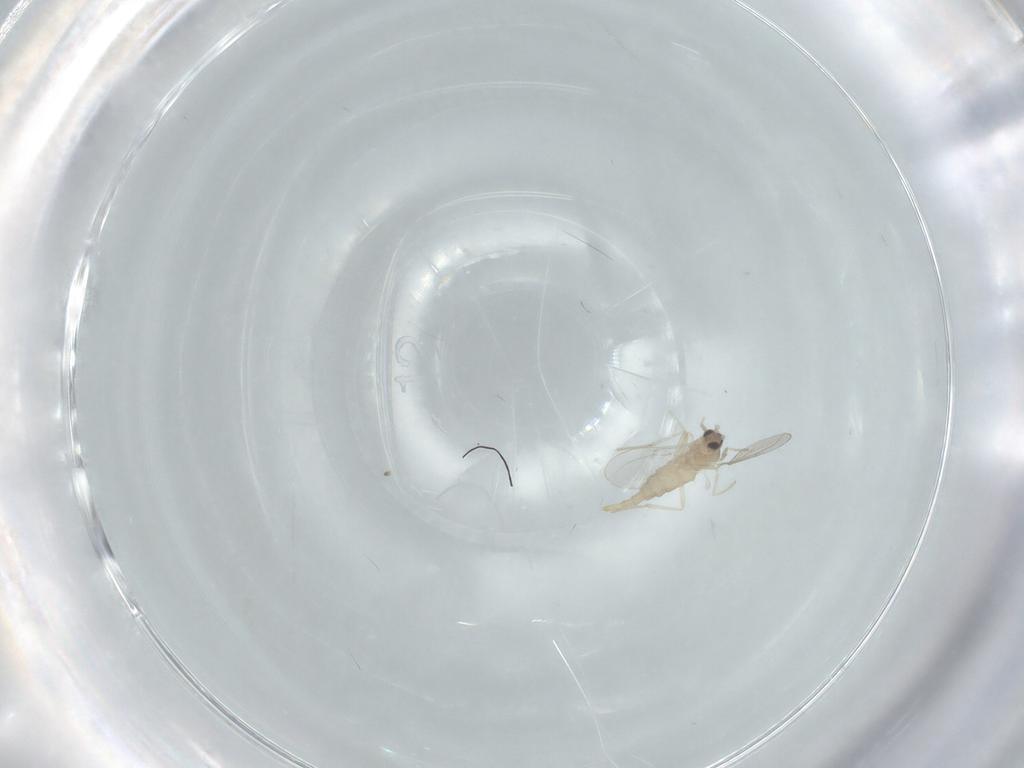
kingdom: Animalia
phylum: Arthropoda
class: Insecta
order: Diptera
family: Cecidomyiidae
